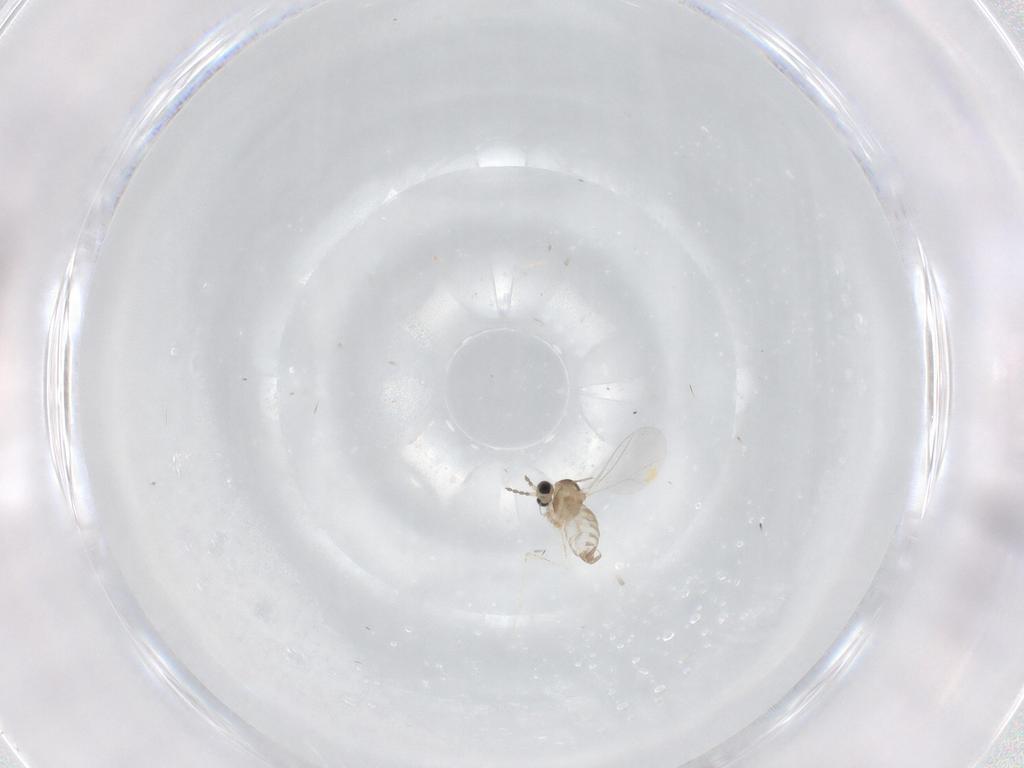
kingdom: Animalia
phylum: Arthropoda
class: Insecta
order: Diptera
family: Cecidomyiidae
